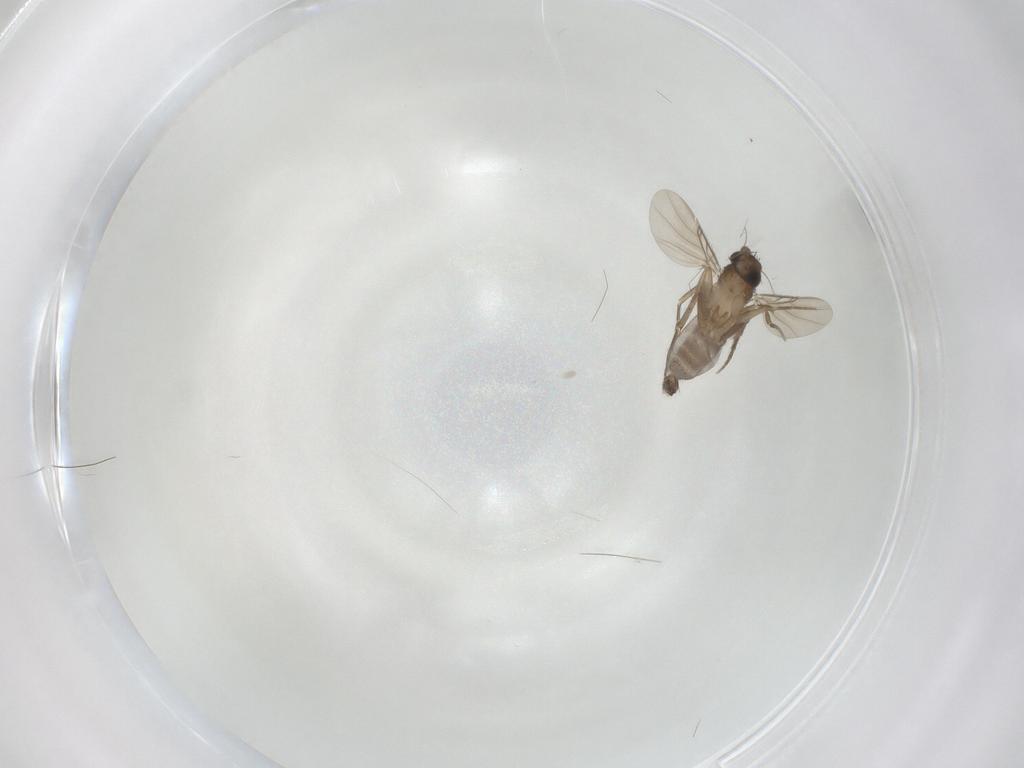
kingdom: Animalia
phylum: Arthropoda
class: Insecta
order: Diptera
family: Phoridae
